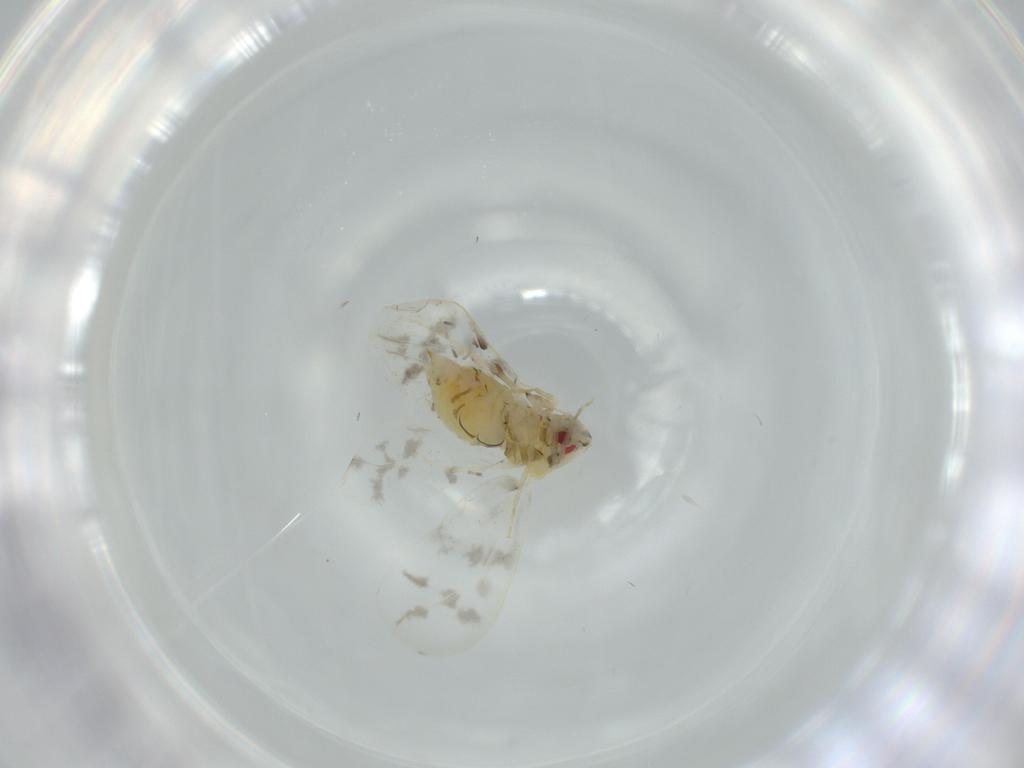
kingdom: Animalia
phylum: Arthropoda
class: Insecta
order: Hemiptera
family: Aleyrodidae
